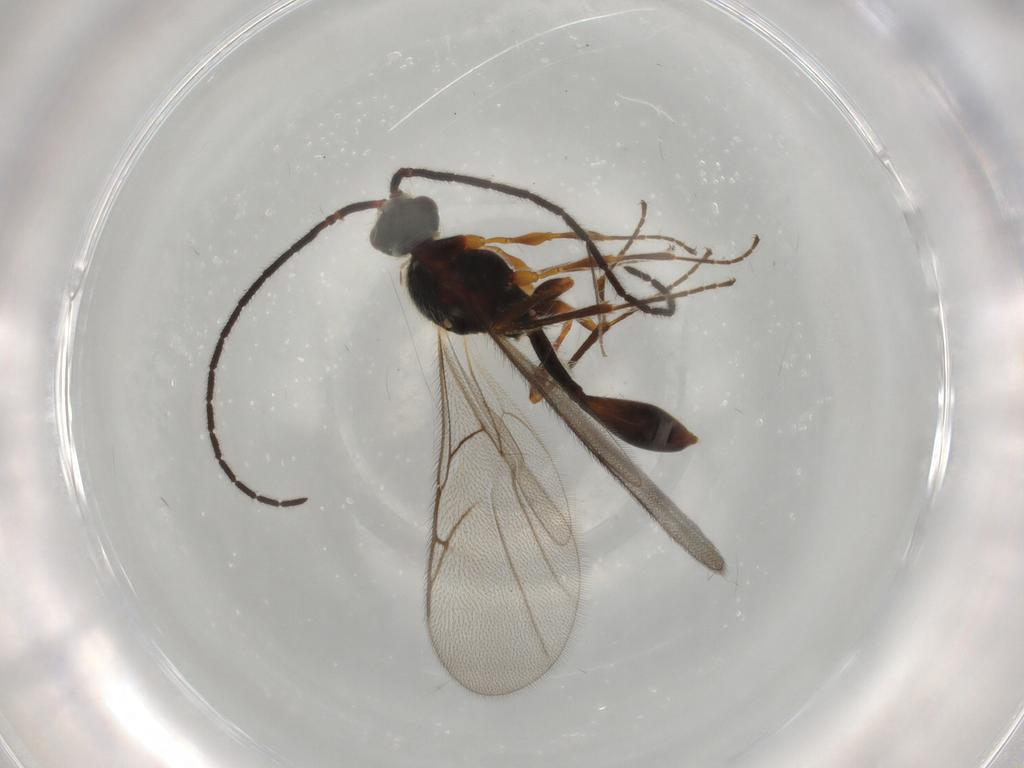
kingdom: Animalia
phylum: Arthropoda
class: Insecta
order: Hymenoptera
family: Diapriidae
